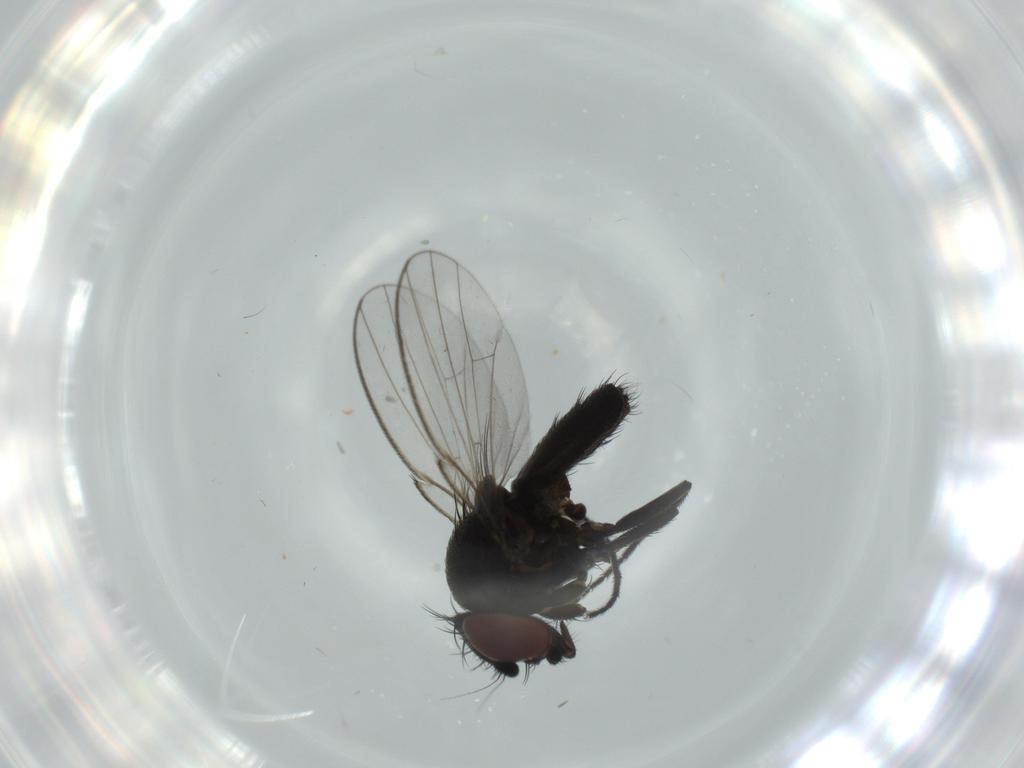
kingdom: Animalia
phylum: Arthropoda
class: Insecta
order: Diptera
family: Milichiidae
